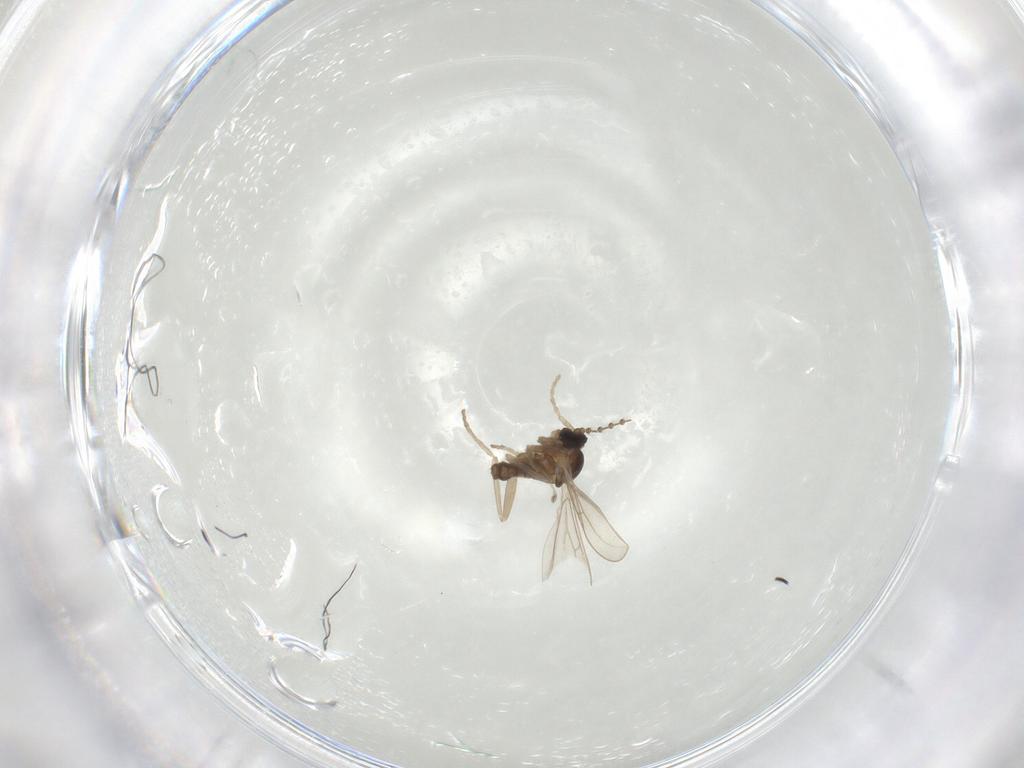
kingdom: Animalia
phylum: Arthropoda
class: Insecta
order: Diptera
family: Cecidomyiidae
